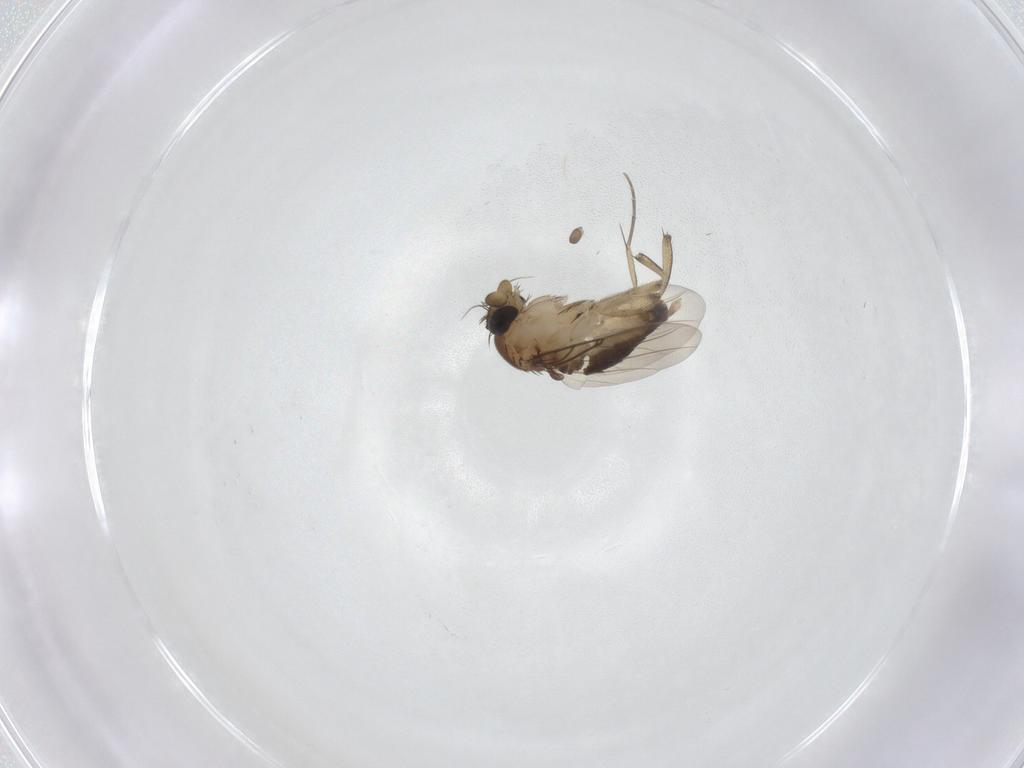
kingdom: Animalia
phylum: Arthropoda
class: Insecta
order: Diptera
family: Phoridae
